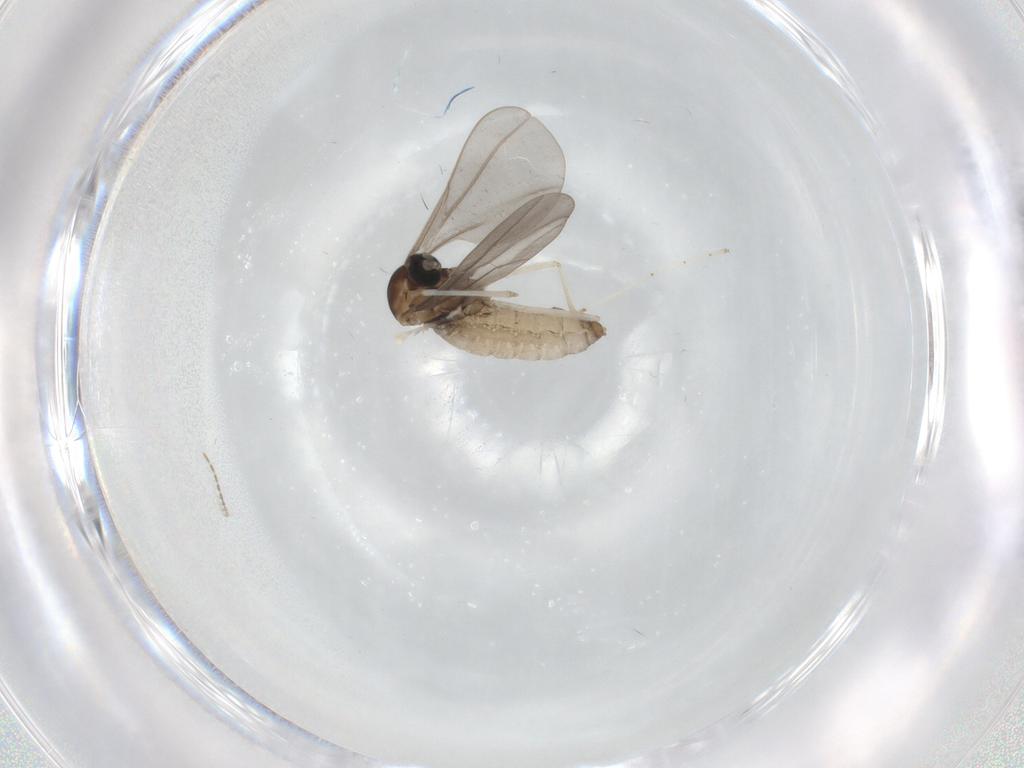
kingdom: Animalia
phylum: Arthropoda
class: Insecta
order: Diptera
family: Ceratopogonidae
